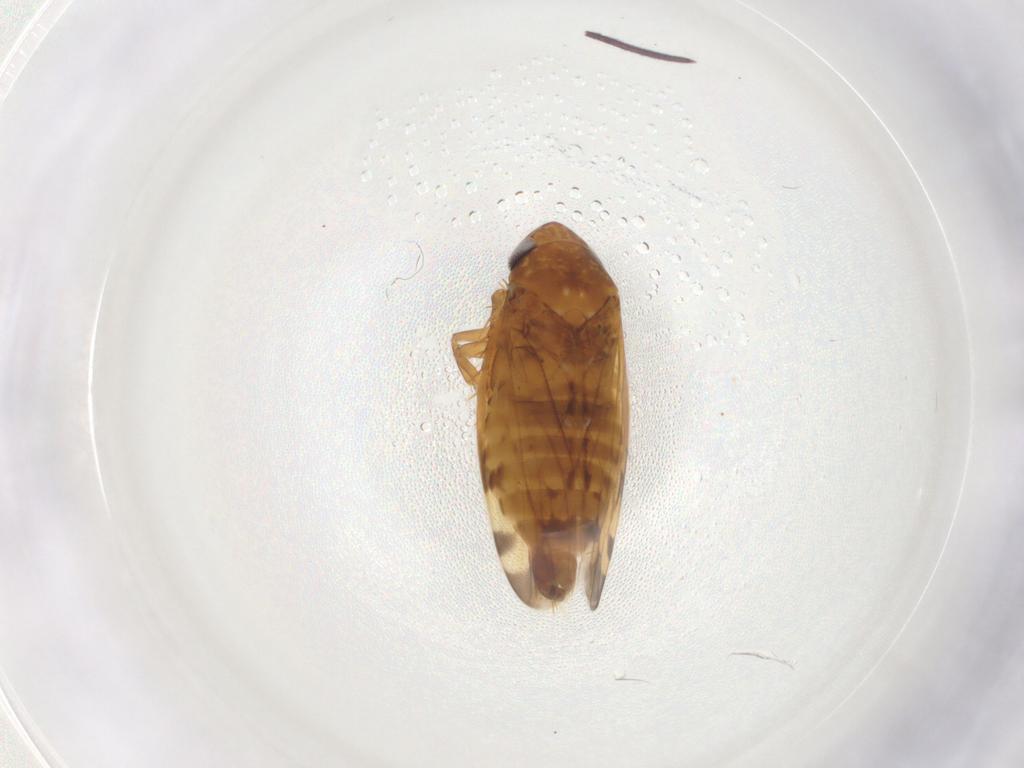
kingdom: Animalia
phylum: Arthropoda
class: Insecta
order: Hemiptera
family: Cicadellidae
